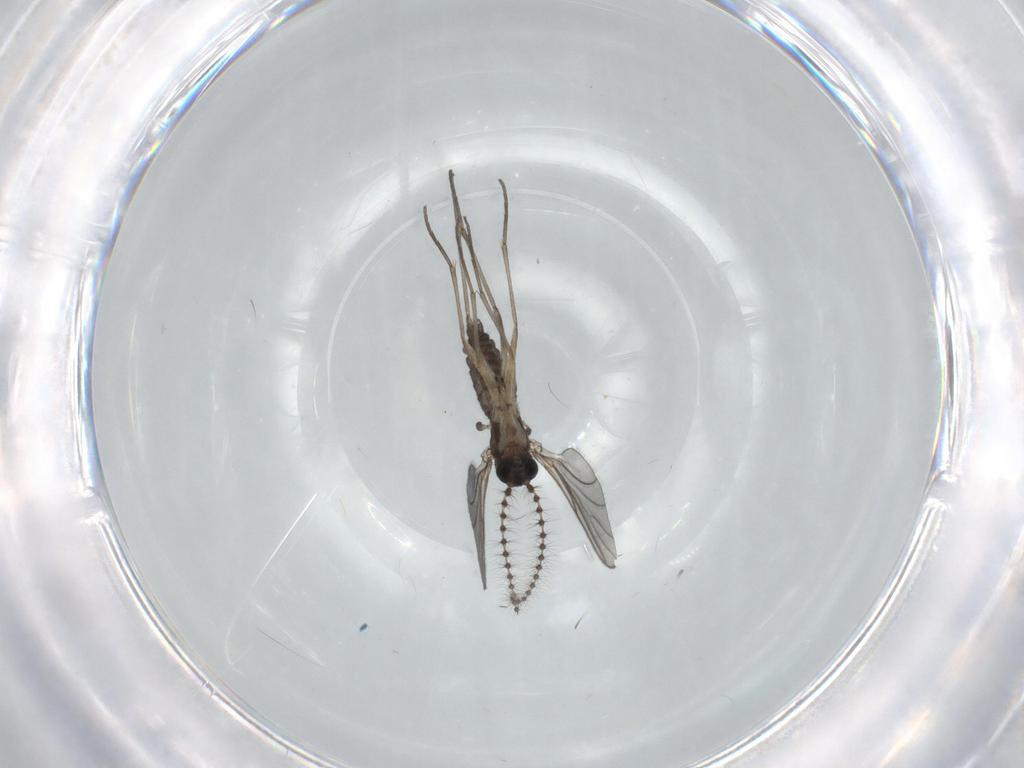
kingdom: Animalia
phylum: Arthropoda
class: Insecta
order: Diptera
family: Sciaridae
